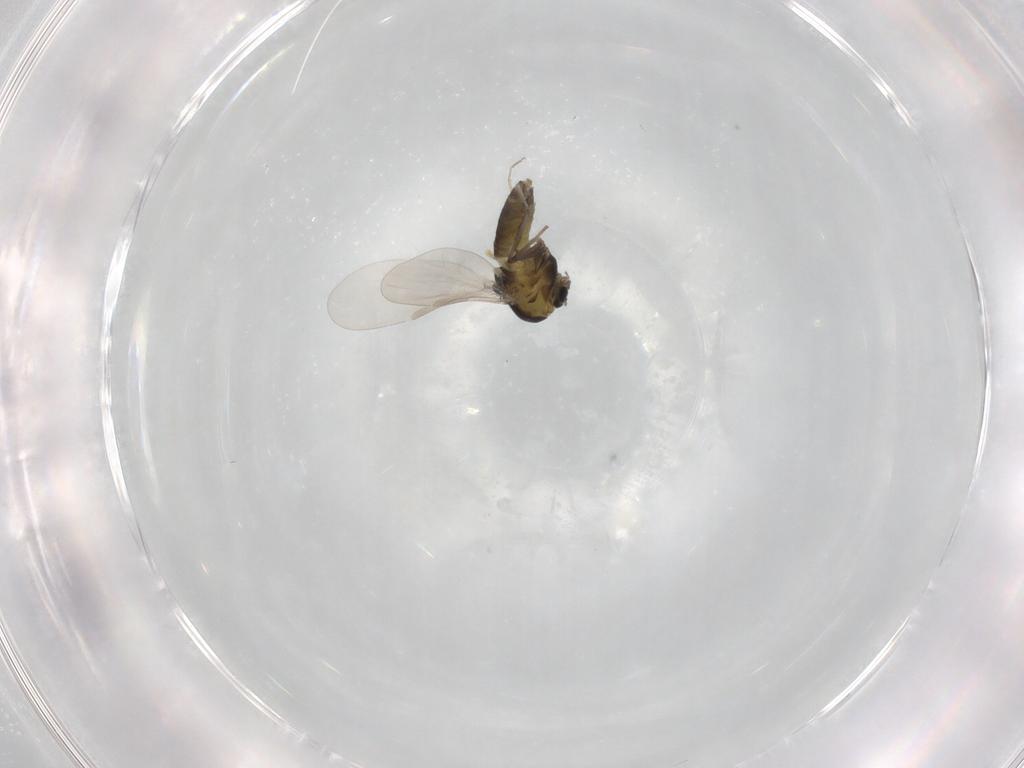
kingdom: Animalia
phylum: Arthropoda
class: Insecta
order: Diptera
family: Chironomidae
